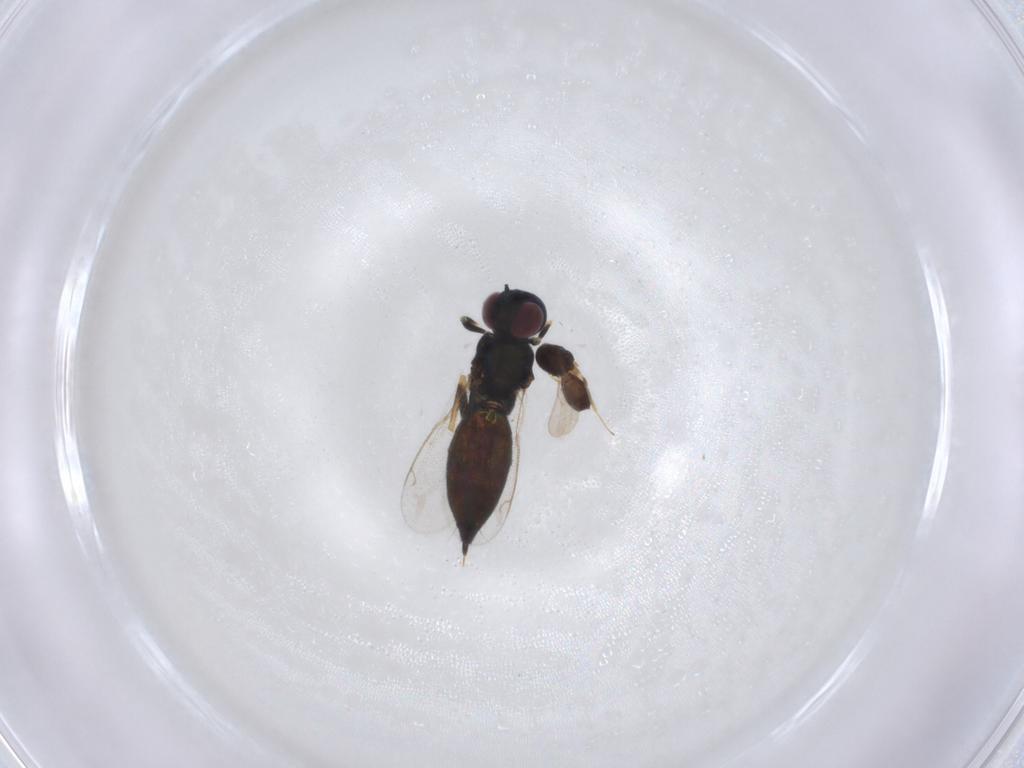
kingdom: Animalia
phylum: Arthropoda
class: Insecta
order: Hymenoptera
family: Eupelmidae
